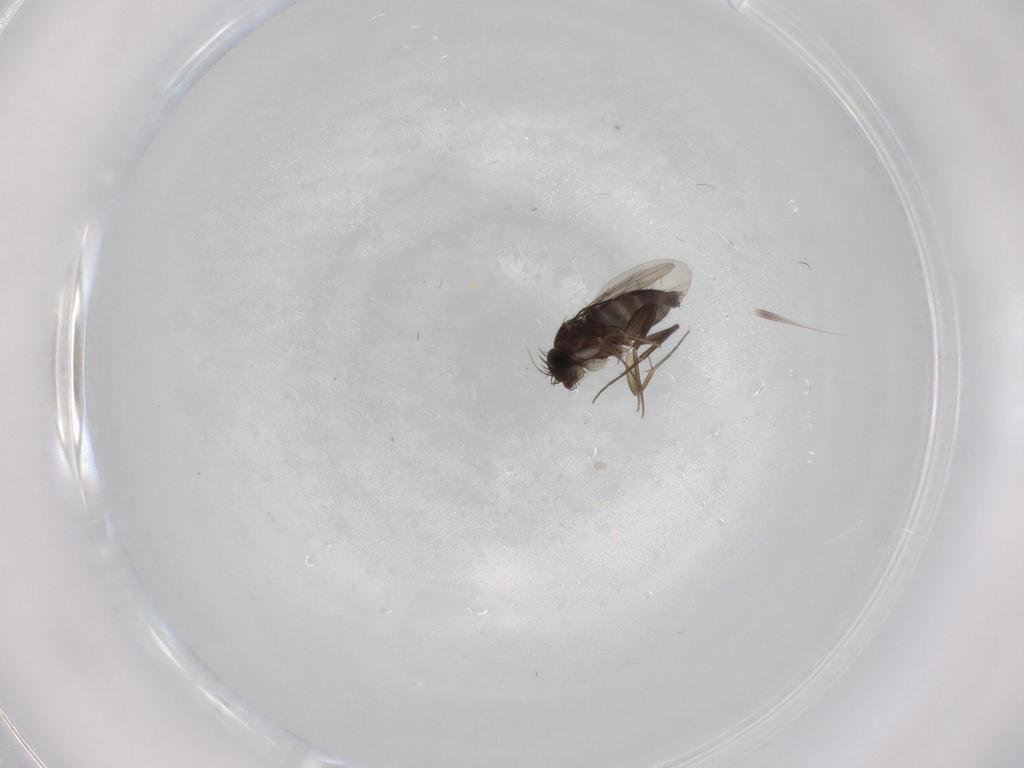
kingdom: Animalia
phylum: Arthropoda
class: Insecta
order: Diptera
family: Phoridae
